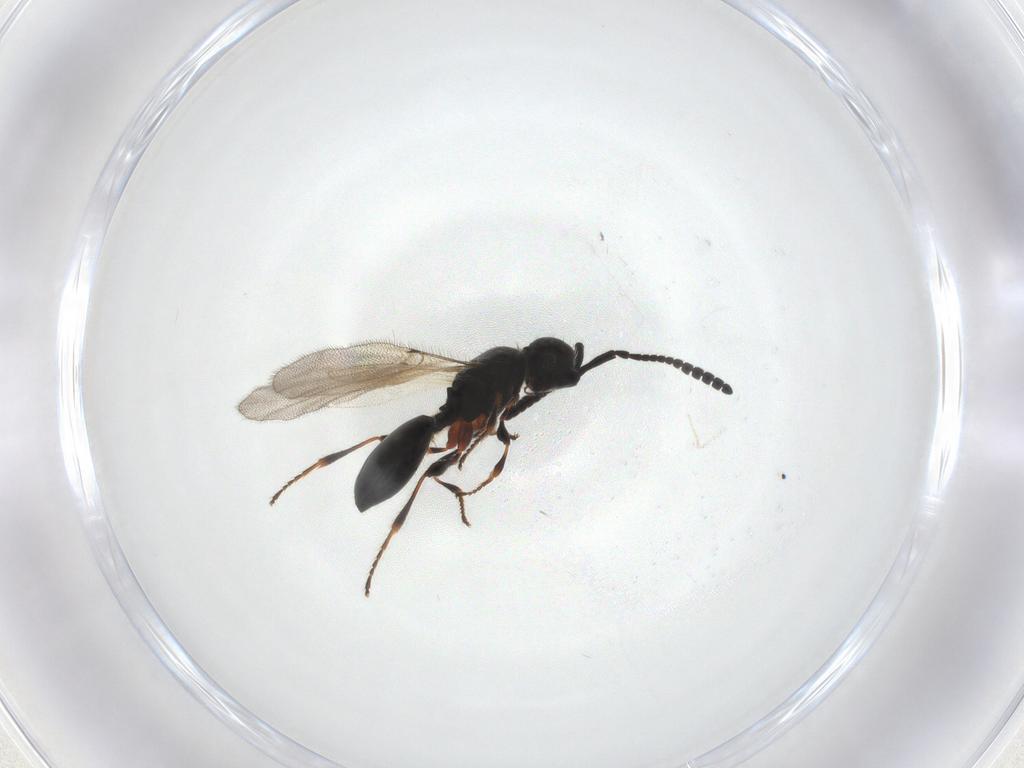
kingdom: Animalia
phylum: Arthropoda
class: Insecta
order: Hymenoptera
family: Diapriidae
